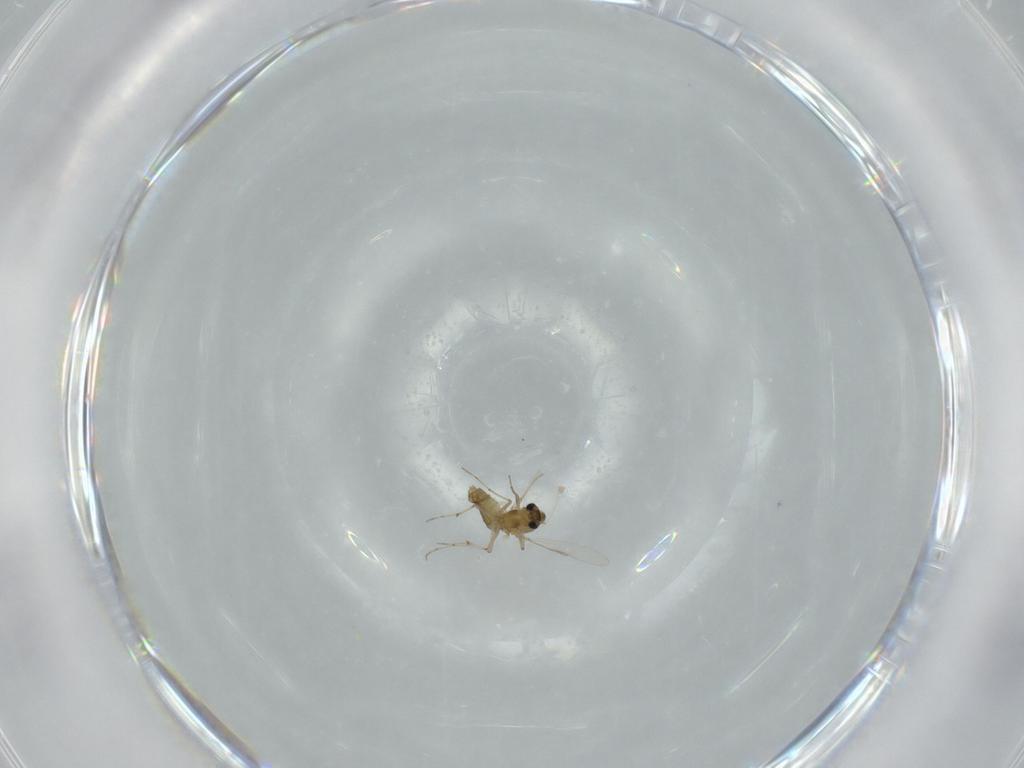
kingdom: Animalia
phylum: Arthropoda
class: Insecta
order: Diptera
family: Chironomidae
